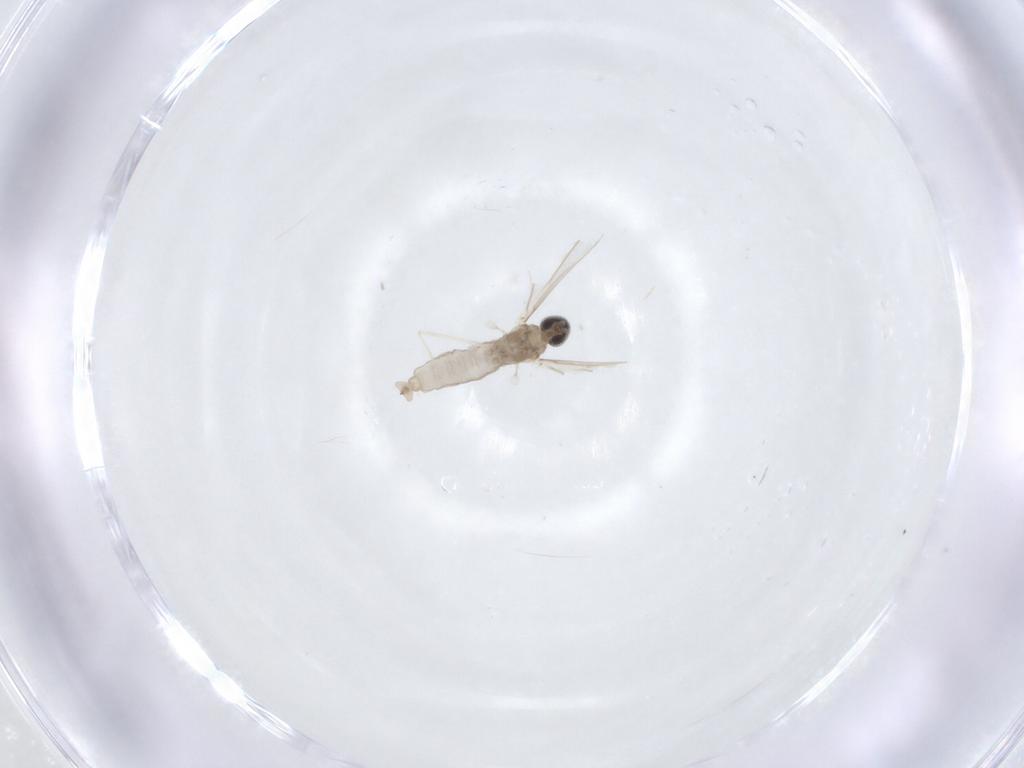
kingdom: Animalia
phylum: Arthropoda
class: Insecta
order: Diptera
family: Cecidomyiidae
